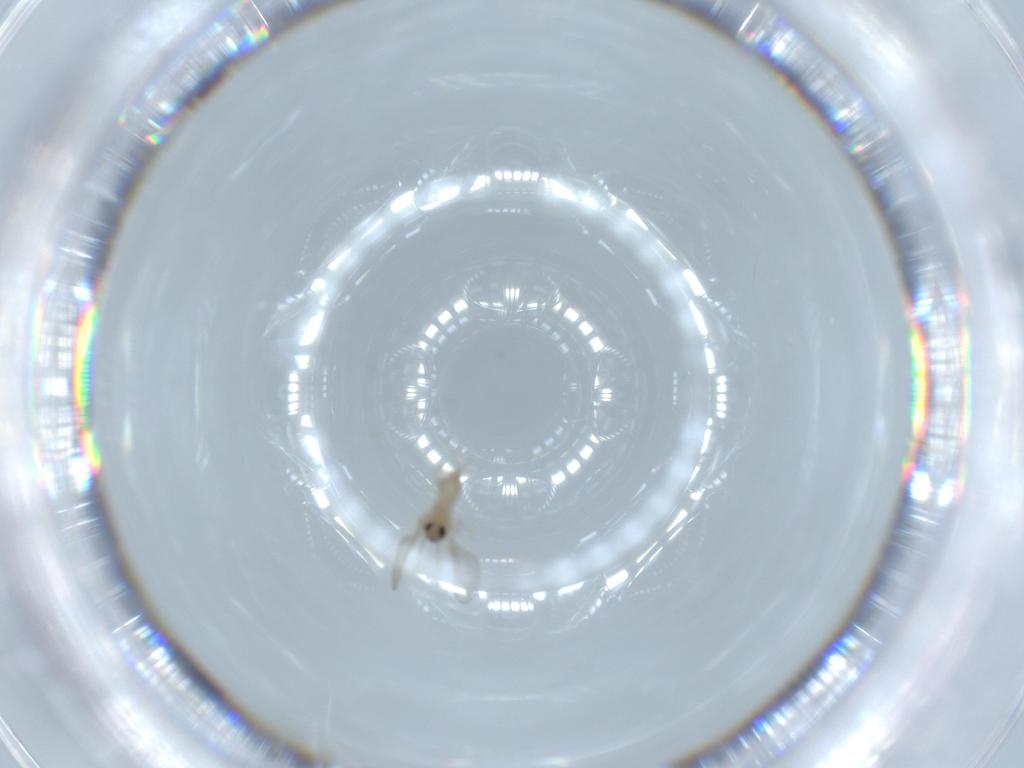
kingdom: Animalia
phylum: Arthropoda
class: Insecta
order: Diptera
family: Cecidomyiidae
